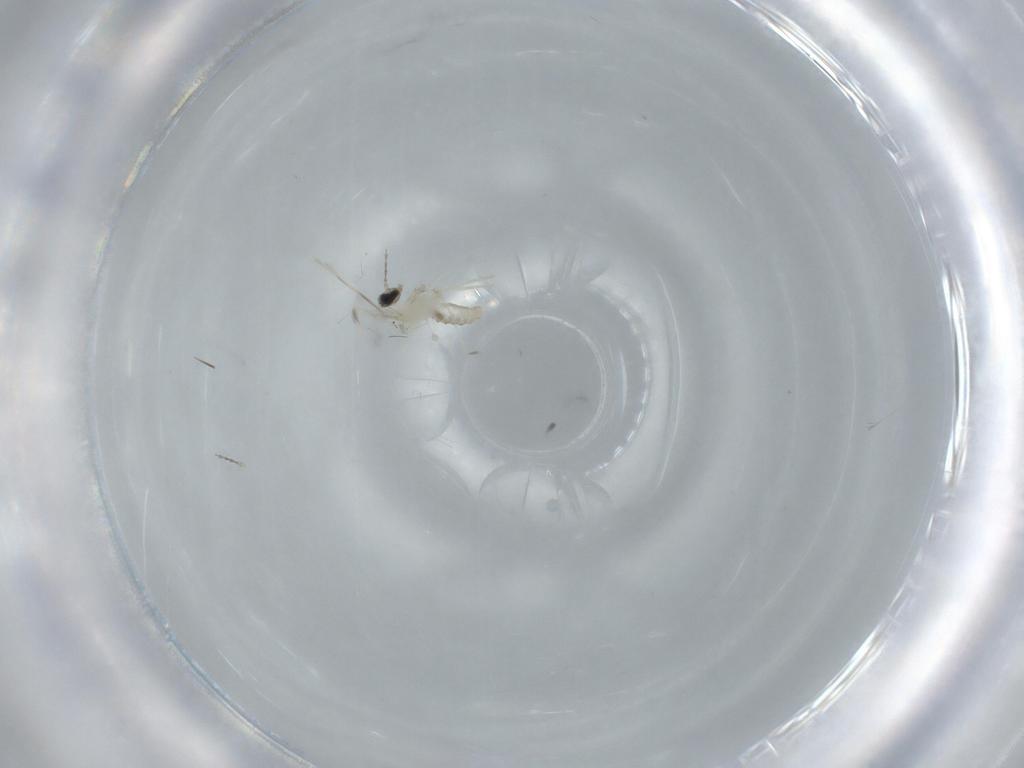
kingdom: Animalia
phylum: Arthropoda
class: Insecta
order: Diptera
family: Cecidomyiidae
